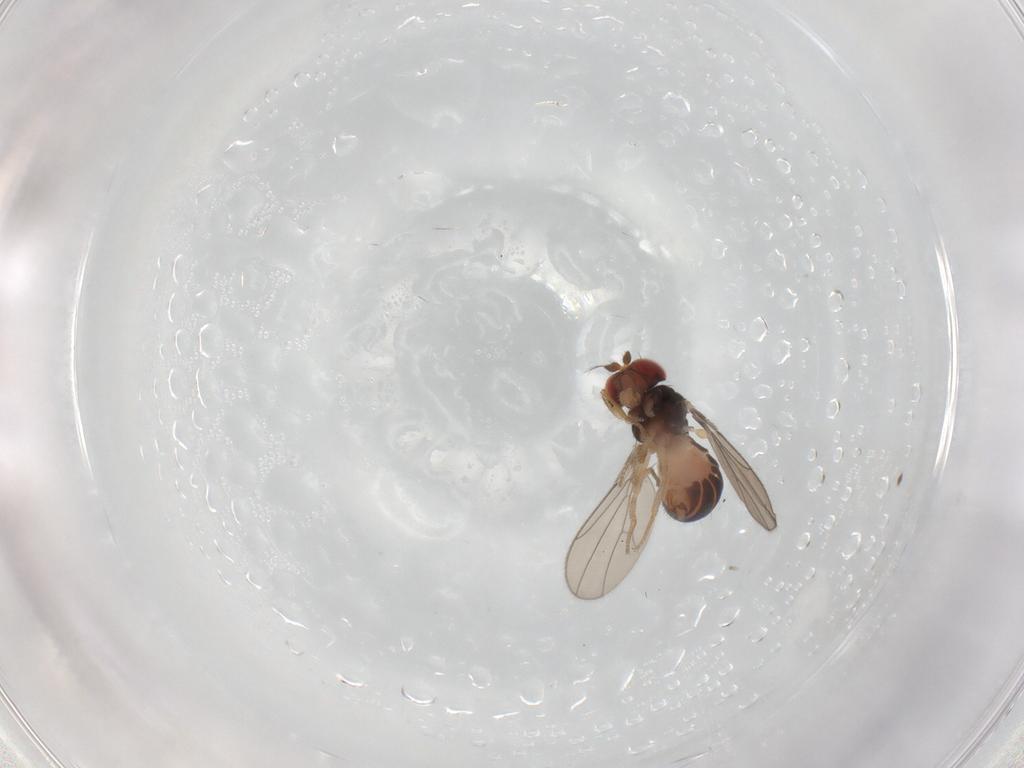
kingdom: Animalia
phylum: Arthropoda
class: Insecta
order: Diptera
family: Drosophilidae
